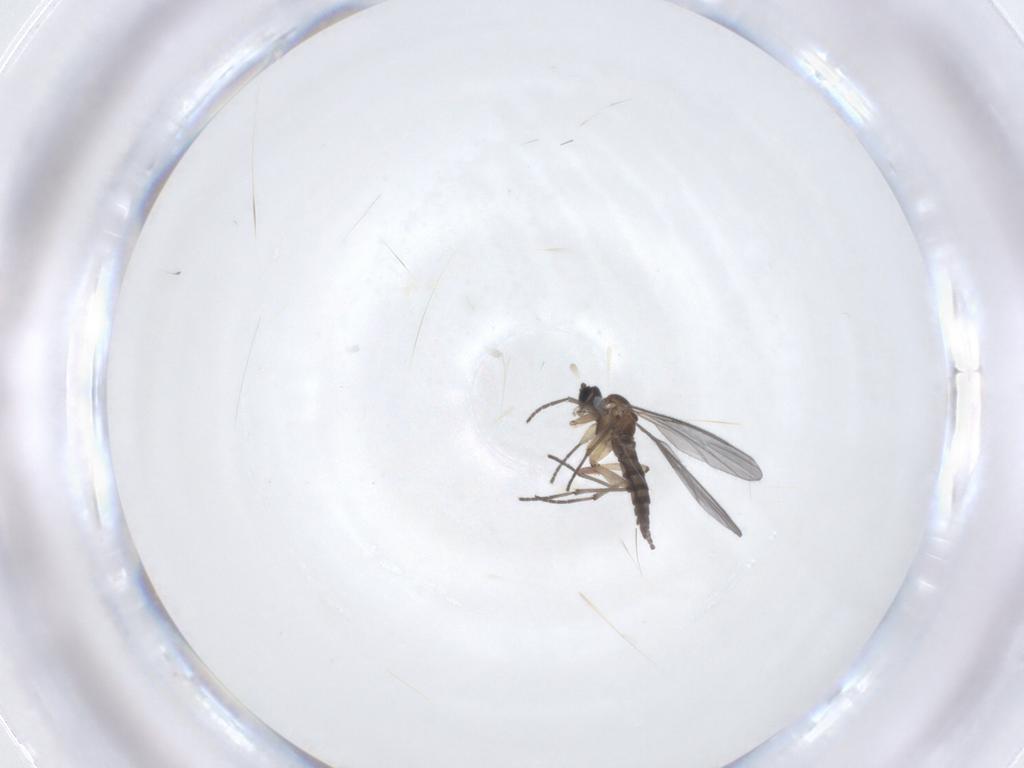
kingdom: Animalia
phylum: Arthropoda
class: Insecta
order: Diptera
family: Sciaridae
